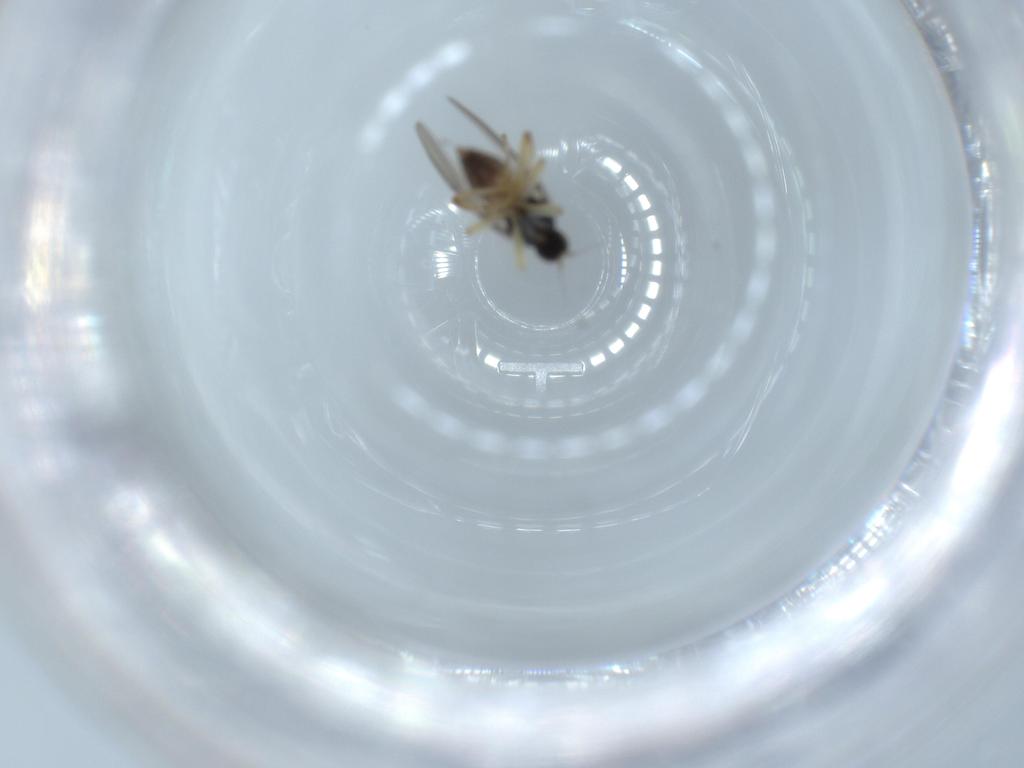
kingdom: Animalia
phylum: Arthropoda
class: Insecta
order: Diptera
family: Hybotidae
